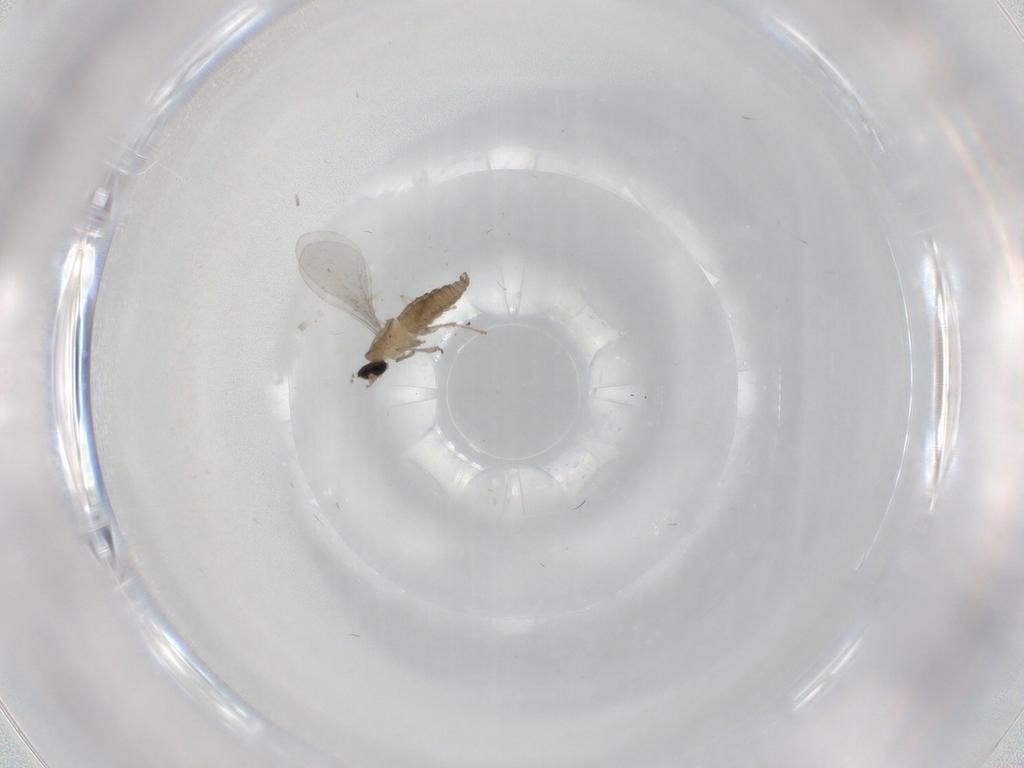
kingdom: Animalia
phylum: Arthropoda
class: Insecta
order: Diptera
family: Cecidomyiidae
